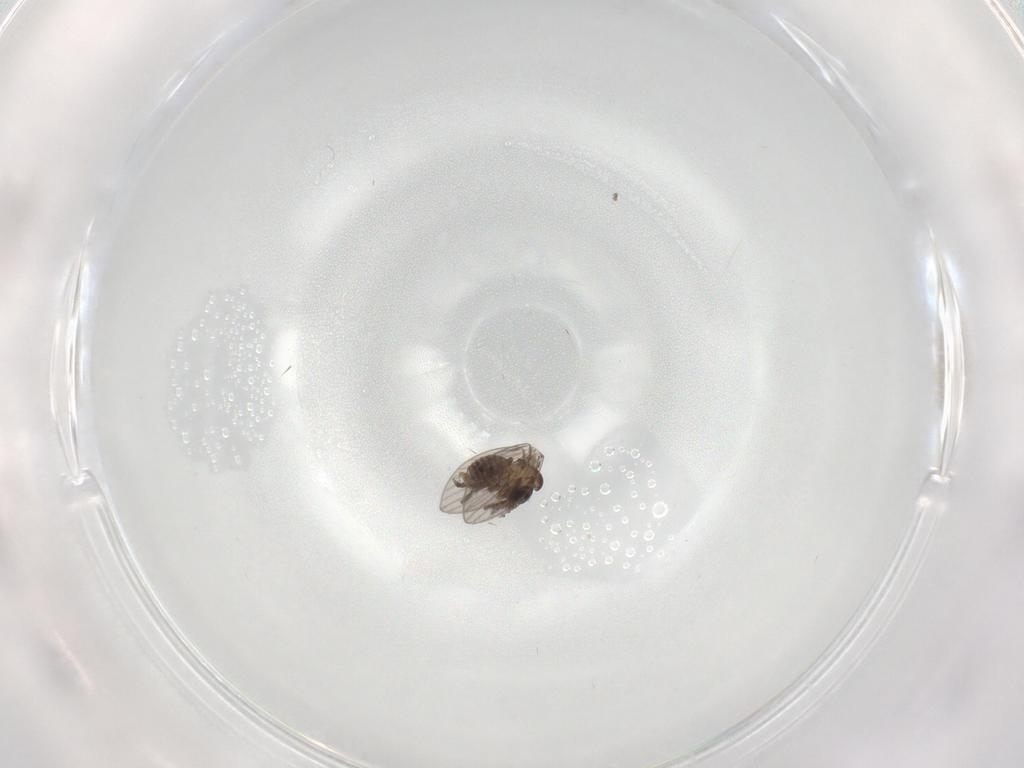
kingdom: Animalia
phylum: Arthropoda
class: Insecta
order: Diptera
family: Psychodidae
